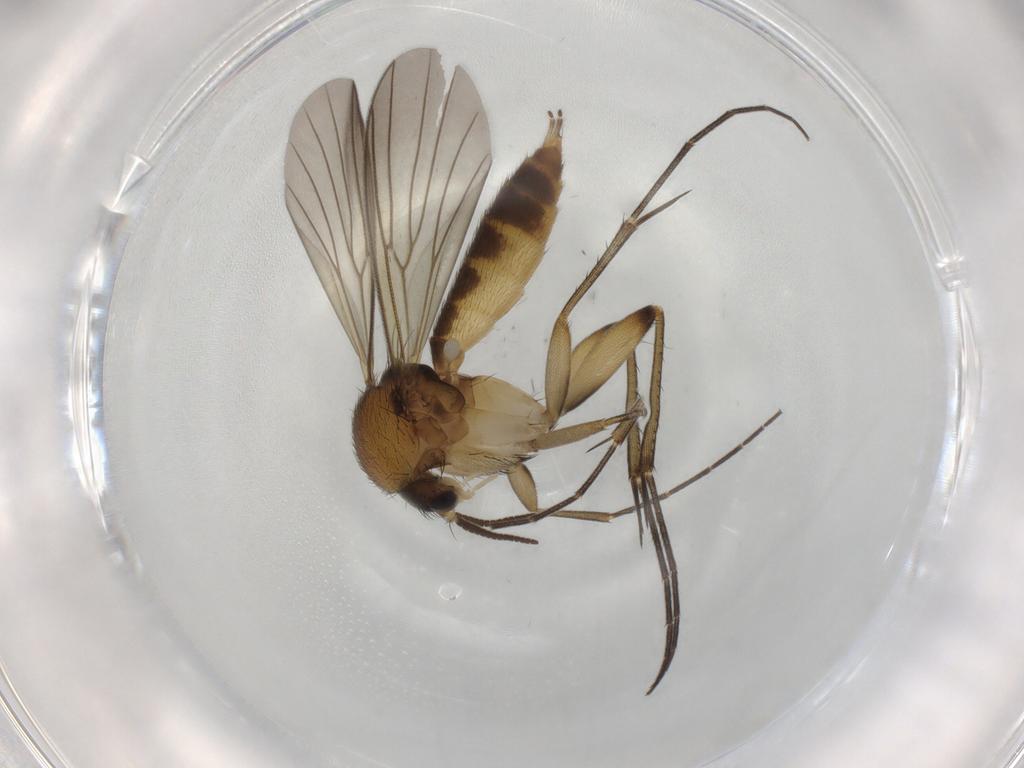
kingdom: Animalia
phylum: Arthropoda
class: Insecta
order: Diptera
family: Mycetophilidae
